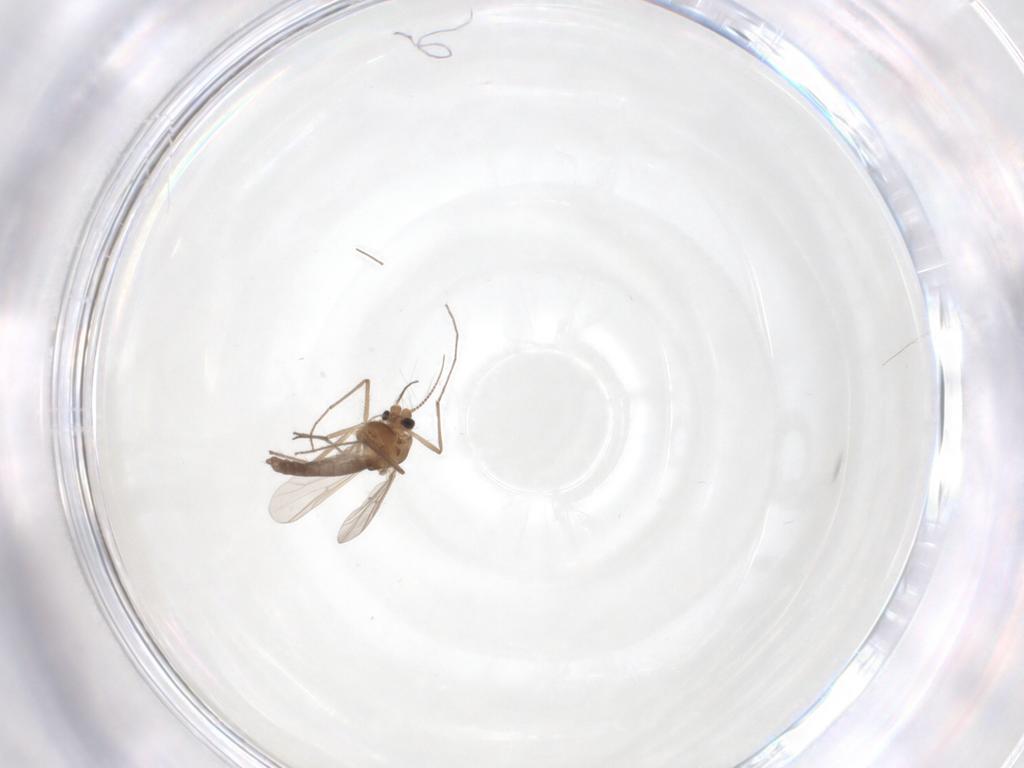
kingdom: Animalia
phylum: Arthropoda
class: Insecta
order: Diptera
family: Chironomidae
